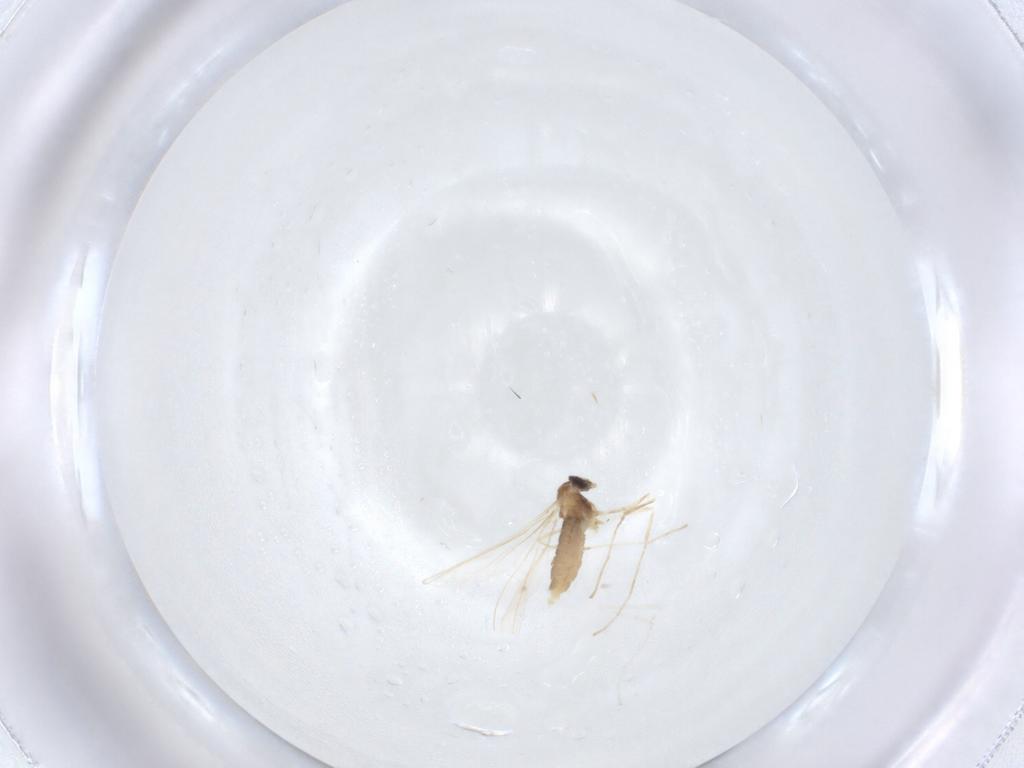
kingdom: Animalia
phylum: Arthropoda
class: Insecta
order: Diptera
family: Cecidomyiidae
